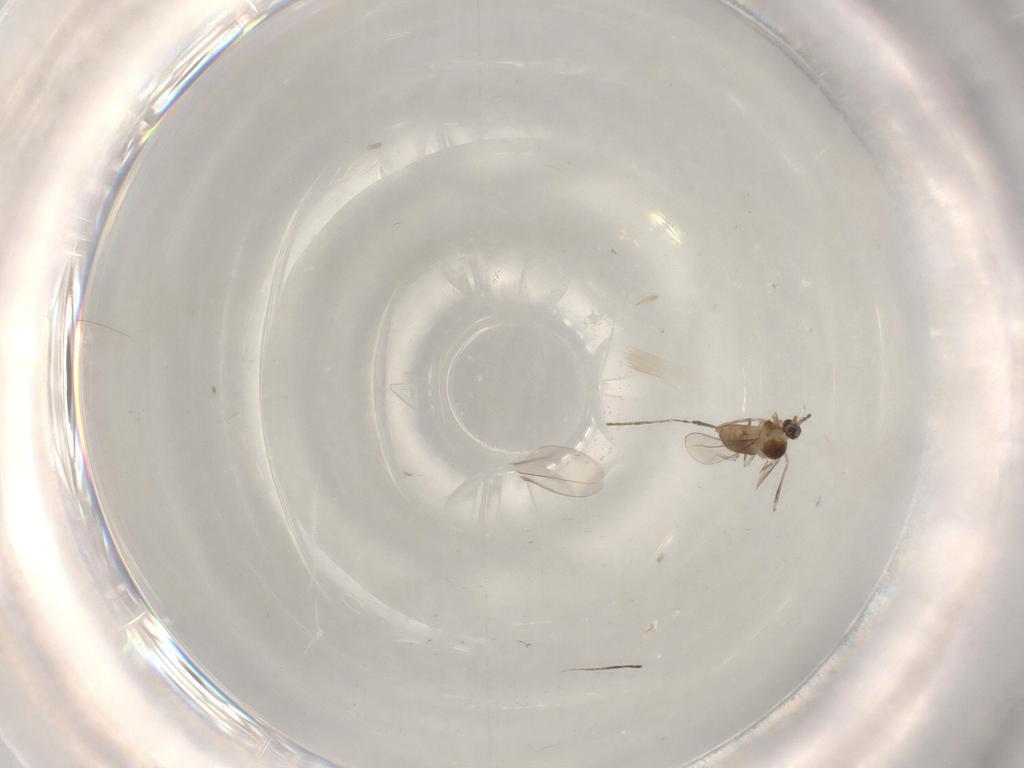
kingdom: Animalia
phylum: Arthropoda
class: Insecta
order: Diptera
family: Cecidomyiidae
